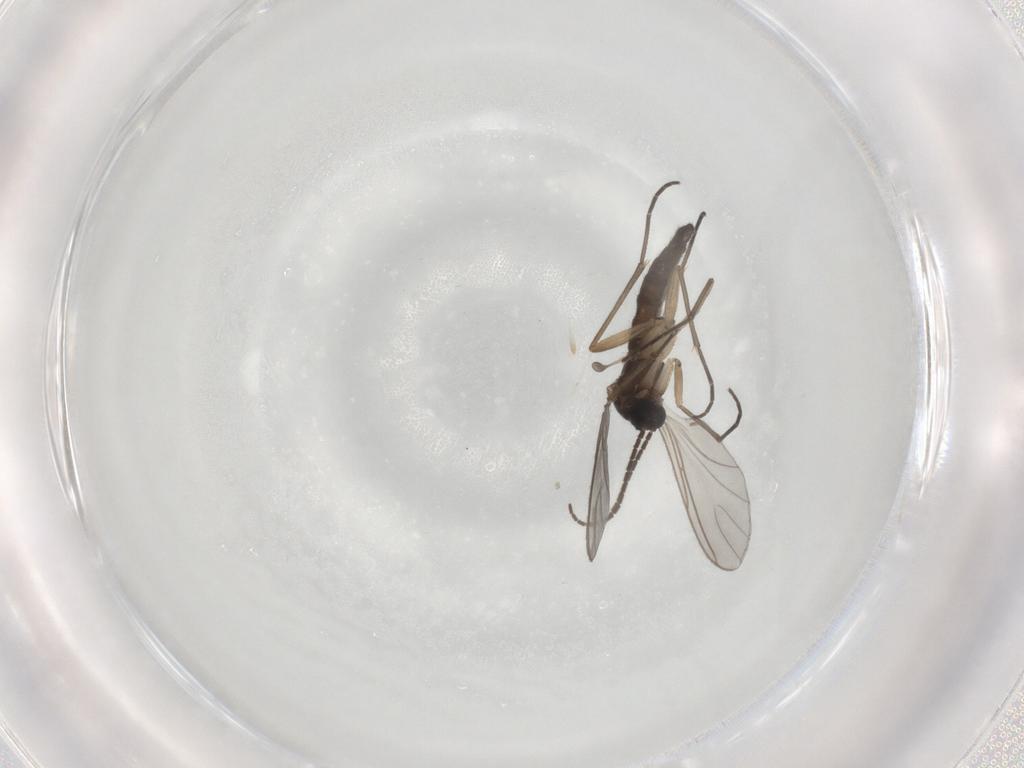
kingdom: Animalia
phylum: Arthropoda
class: Insecta
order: Diptera
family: Sciaridae
